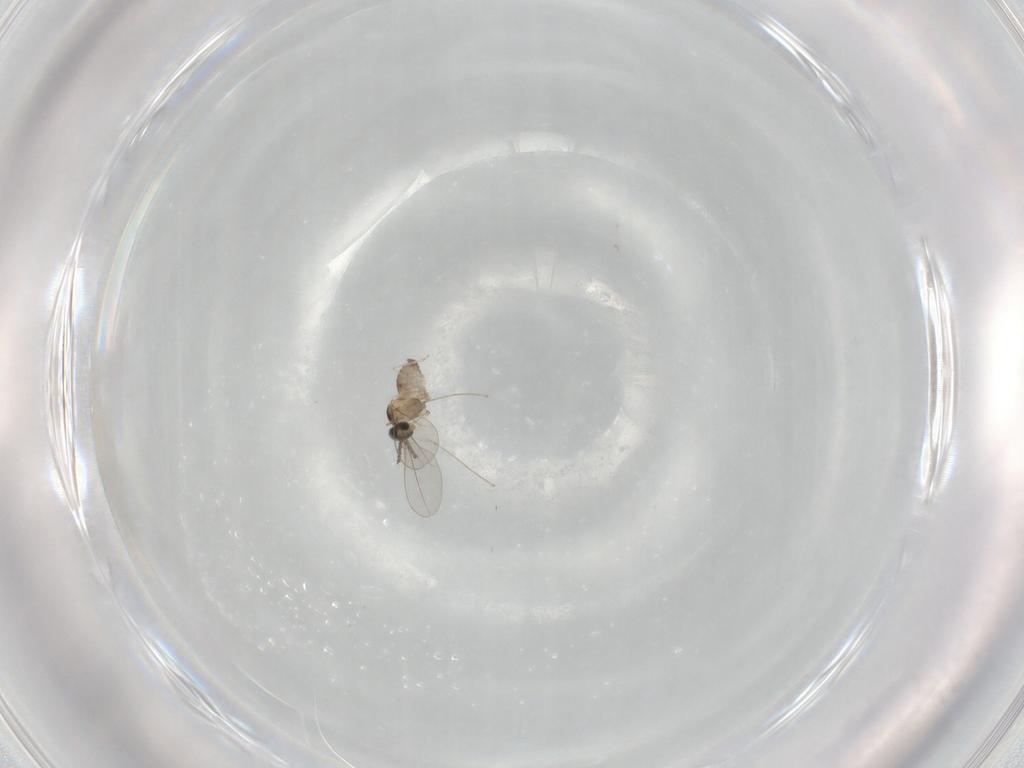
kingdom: Animalia
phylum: Arthropoda
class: Insecta
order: Diptera
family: Cecidomyiidae
